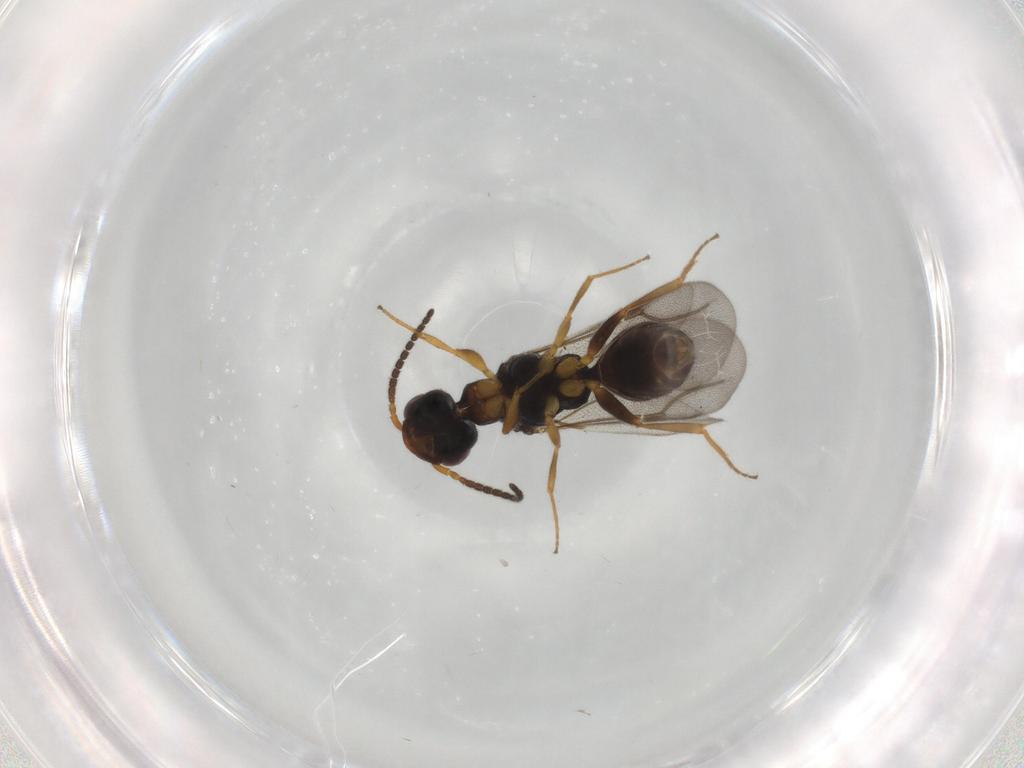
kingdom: Animalia
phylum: Arthropoda
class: Insecta
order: Hymenoptera
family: Bethylidae
